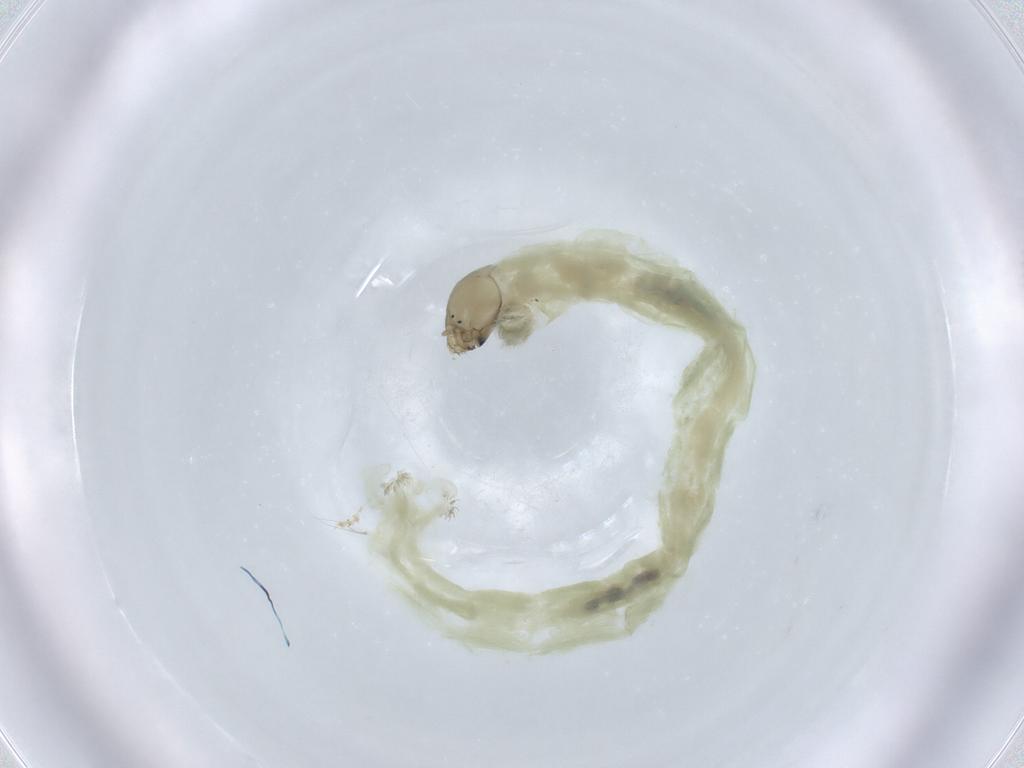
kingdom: Animalia
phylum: Arthropoda
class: Insecta
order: Diptera
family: Chironomidae
